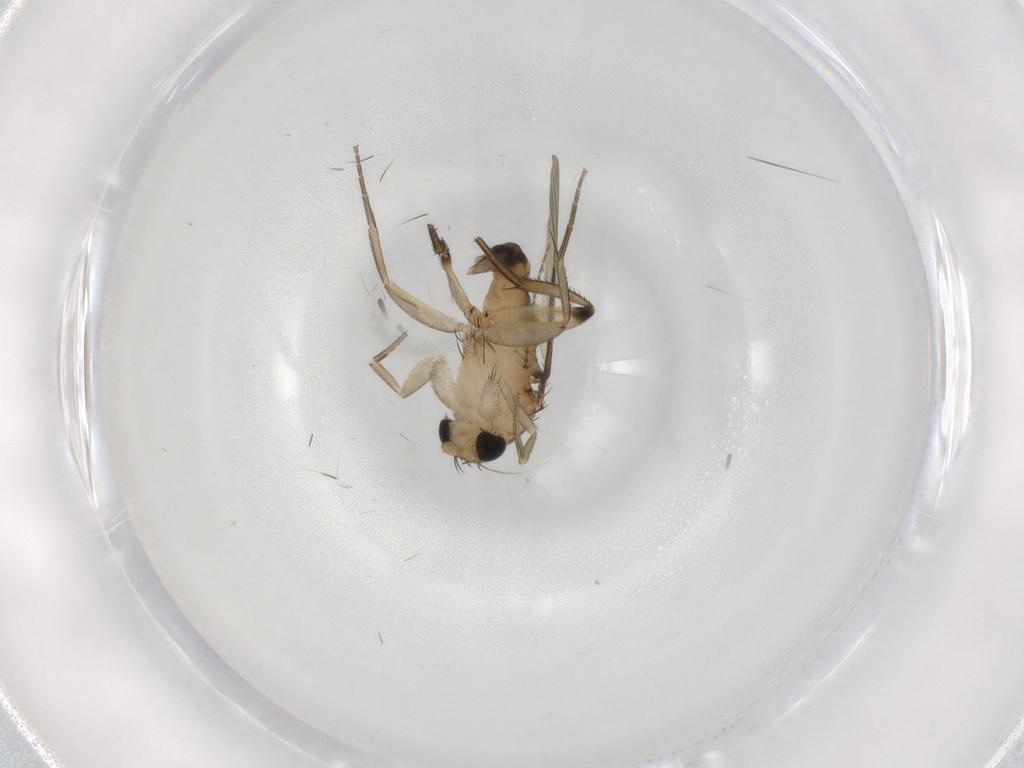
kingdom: Animalia
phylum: Arthropoda
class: Insecta
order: Diptera
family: Phoridae
